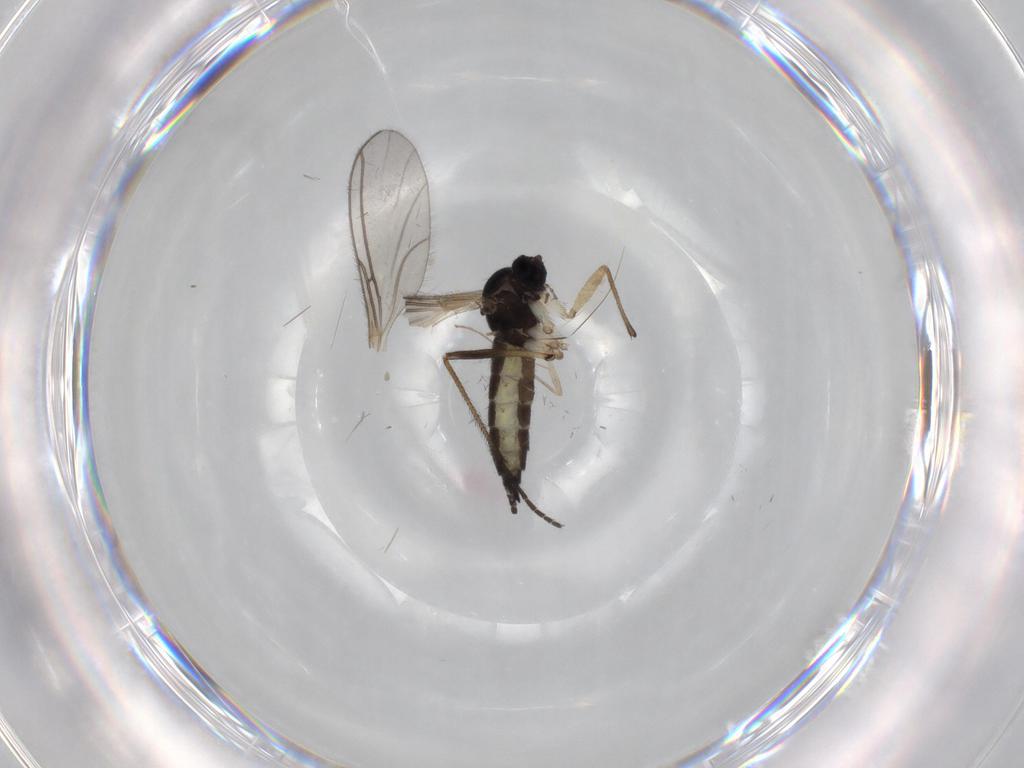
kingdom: Animalia
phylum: Arthropoda
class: Insecta
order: Diptera
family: Sciaridae
